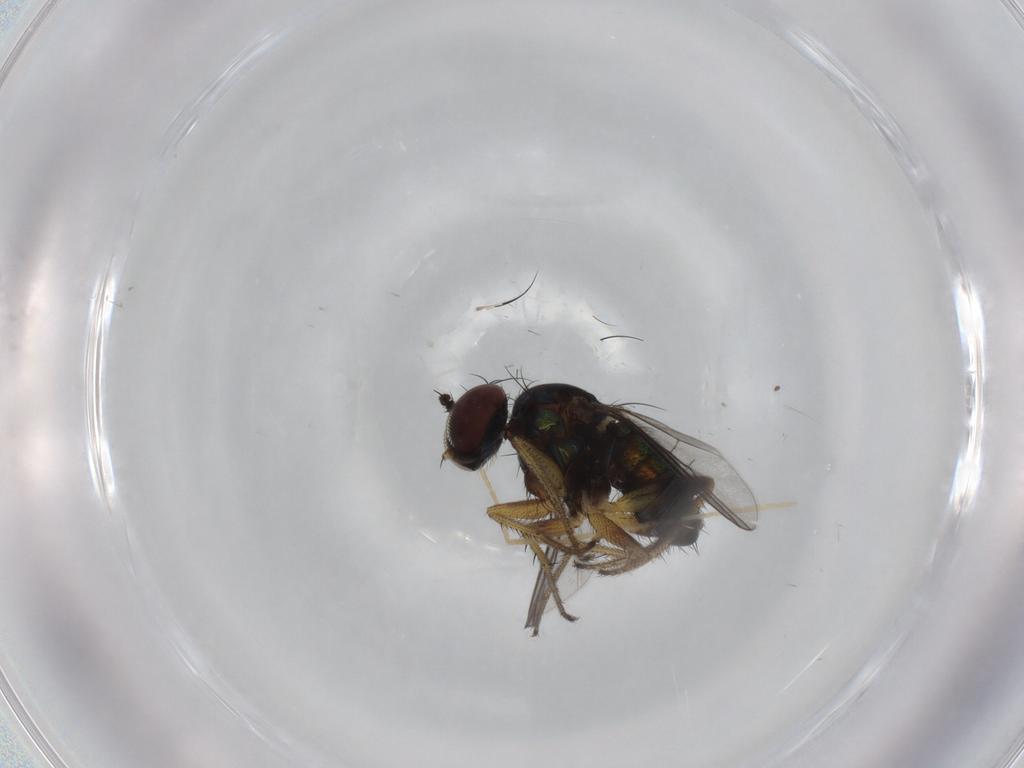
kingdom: Animalia
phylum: Arthropoda
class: Insecta
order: Diptera
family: Dolichopodidae
